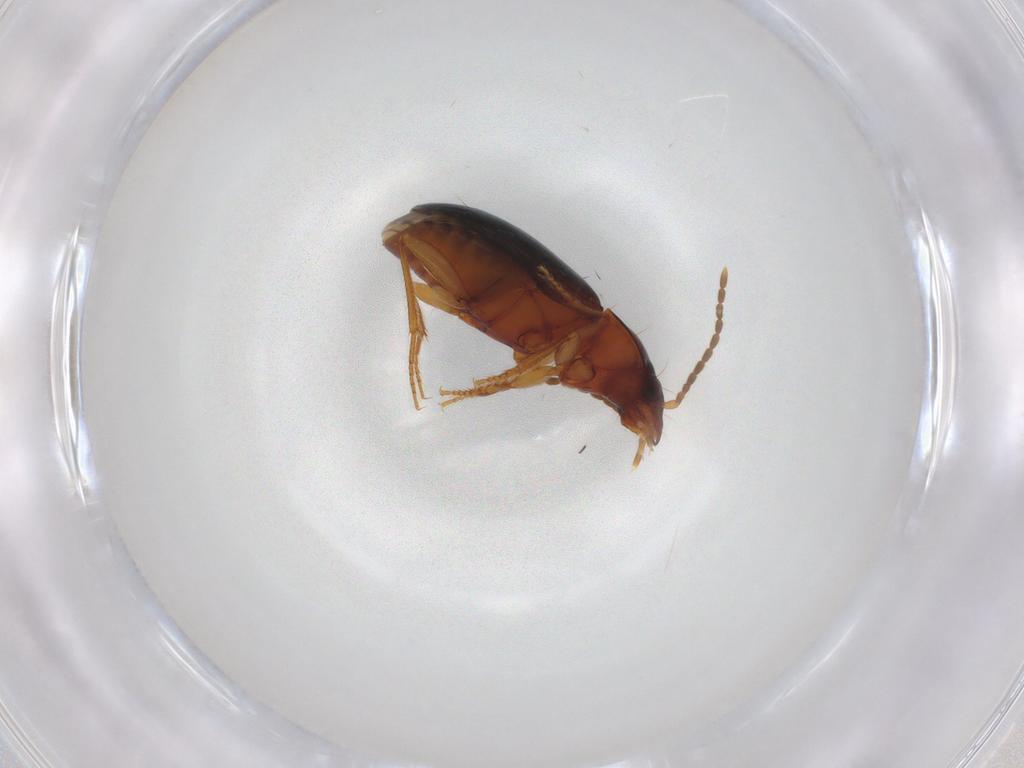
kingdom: Animalia
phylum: Arthropoda
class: Insecta
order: Coleoptera
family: Carabidae
